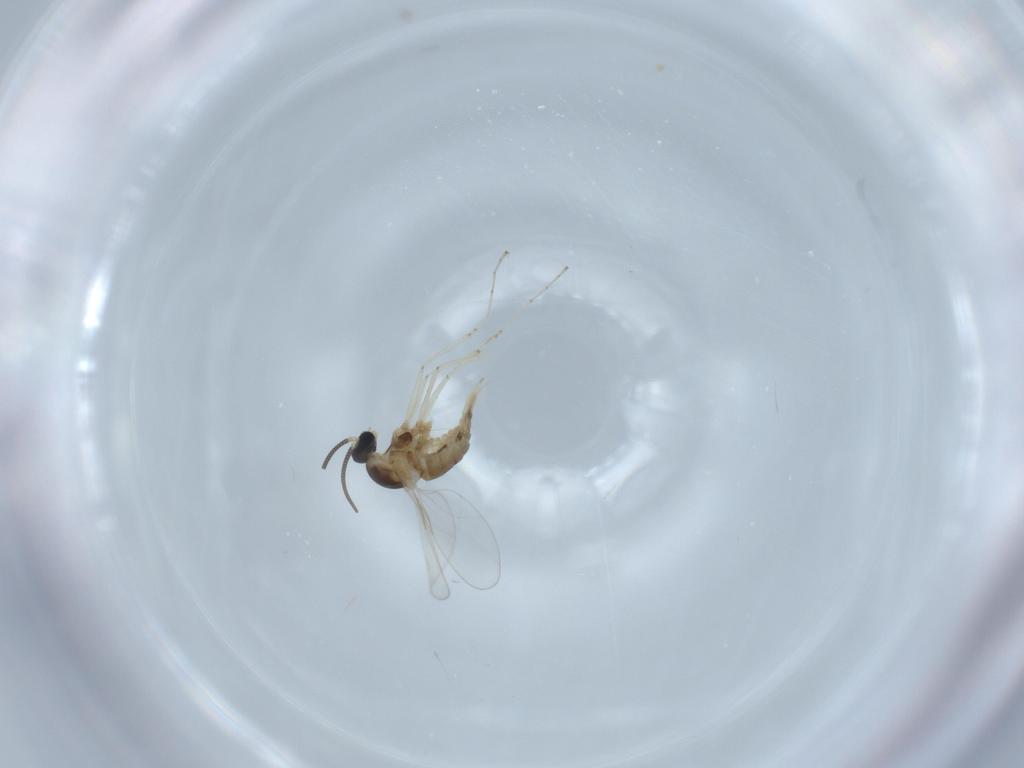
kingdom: Animalia
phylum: Arthropoda
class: Insecta
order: Diptera
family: Cecidomyiidae
